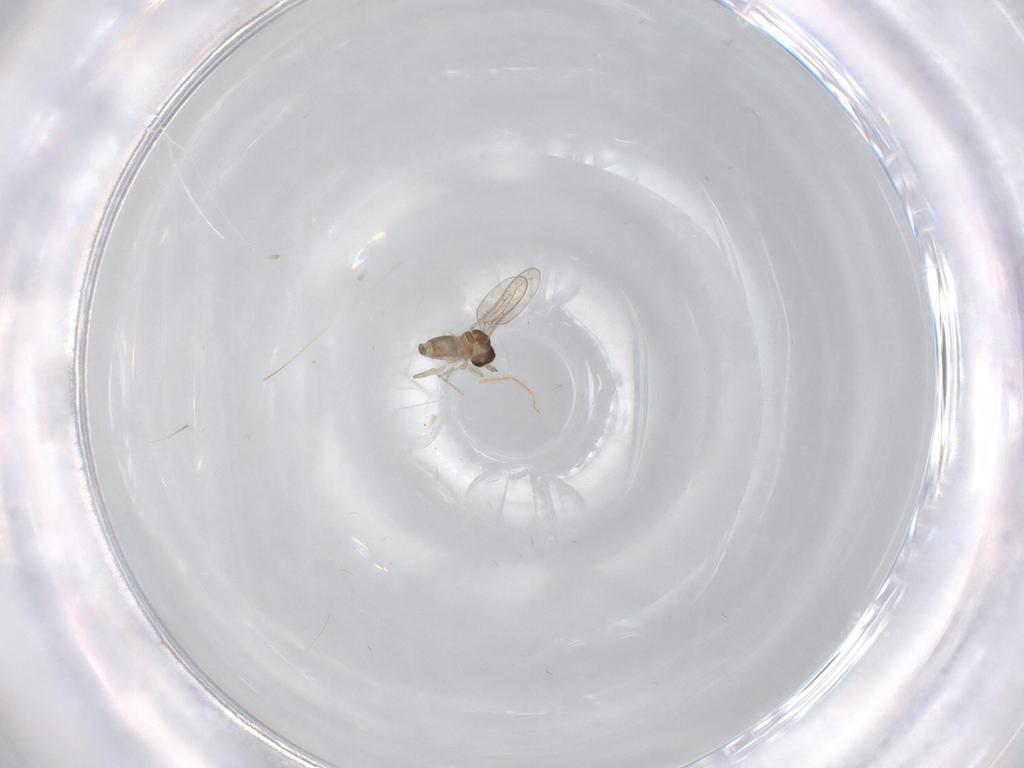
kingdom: Animalia
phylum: Arthropoda
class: Insecta
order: Diptera
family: Cecidomyiidae
